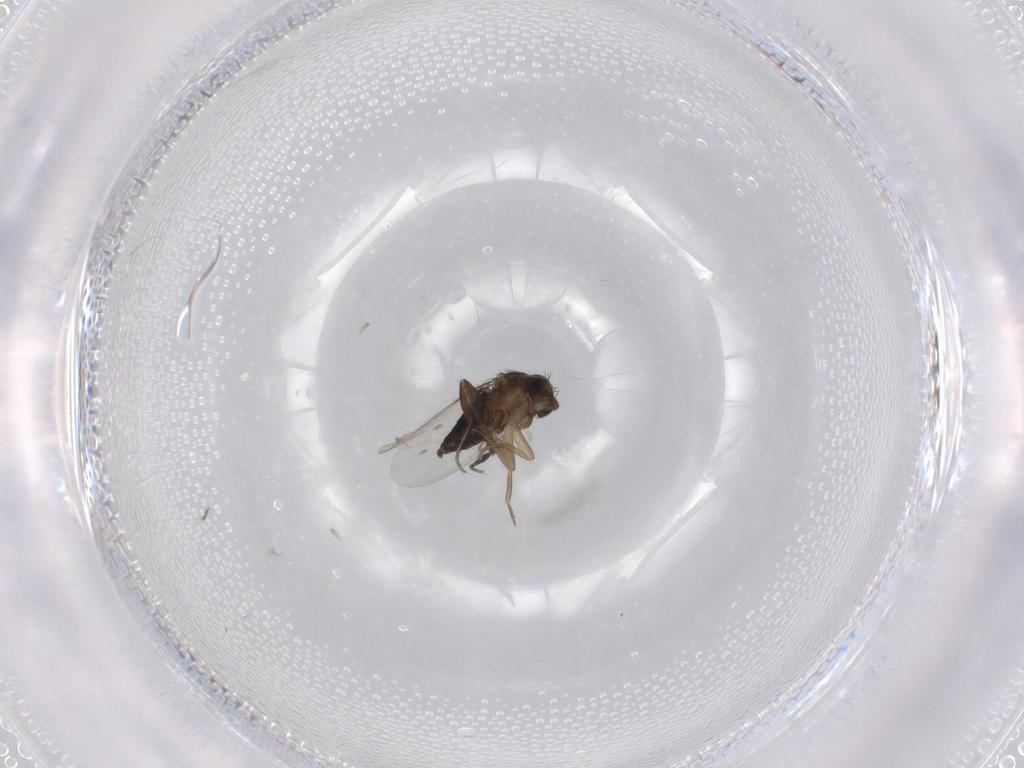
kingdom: Animalia
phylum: Arthropoda
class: Insecta
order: Diptera
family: Phoridae
